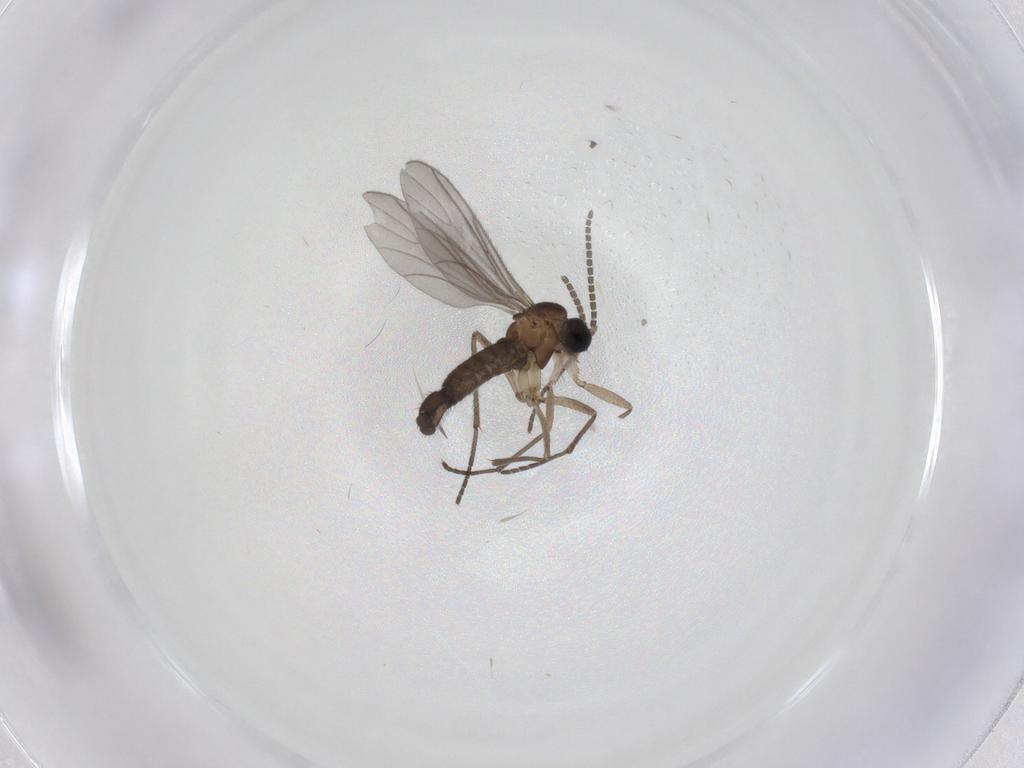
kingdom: Animalia
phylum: Arthropoda
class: Insecta
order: Diptera
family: Sciaridae
